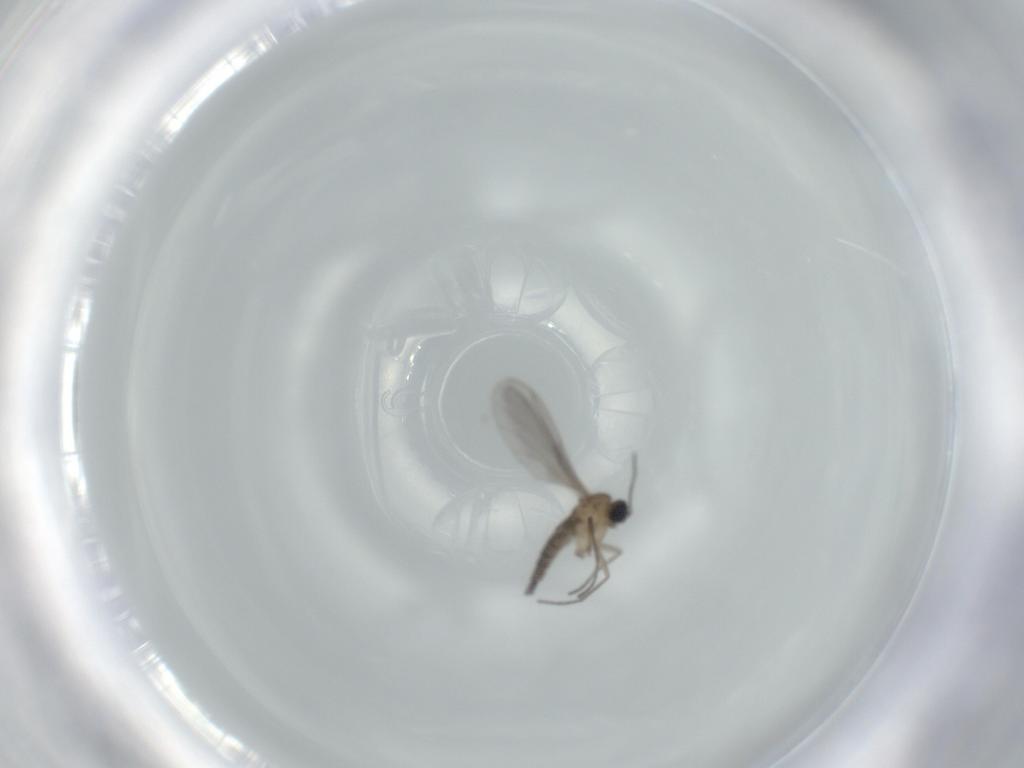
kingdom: Animalia
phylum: Arthropoda
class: Insecta
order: Diptera
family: Sciaridae
